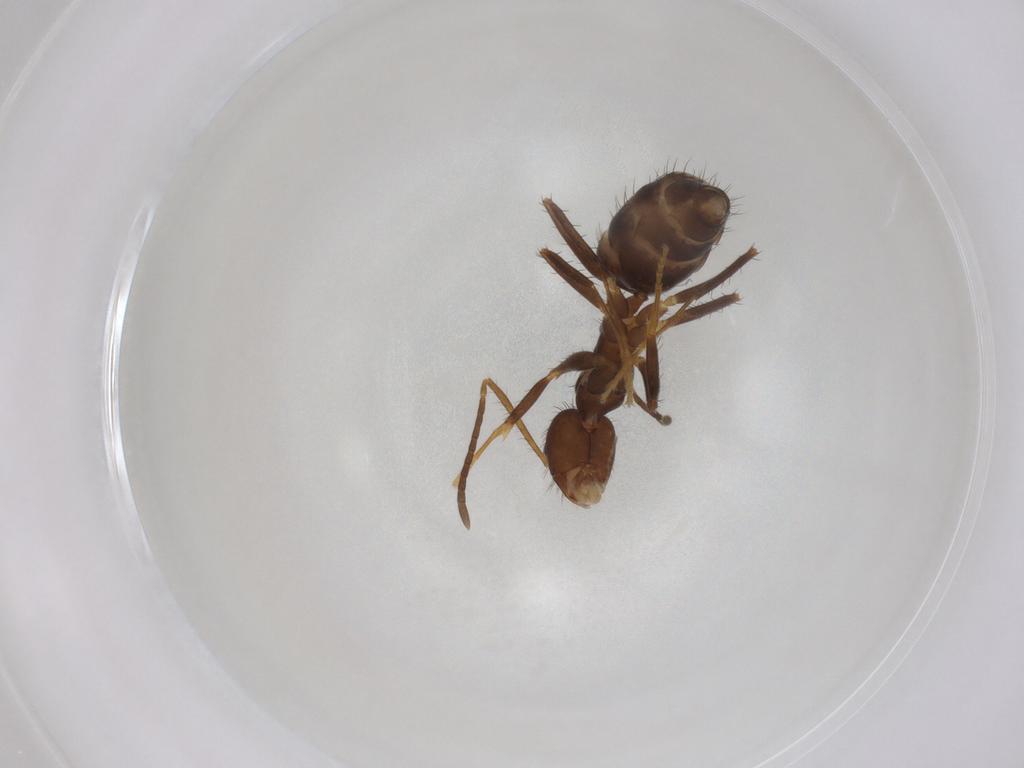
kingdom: Animalia
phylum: Arthropoda
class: Insecta
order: Hymenoptera
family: Formicidae
